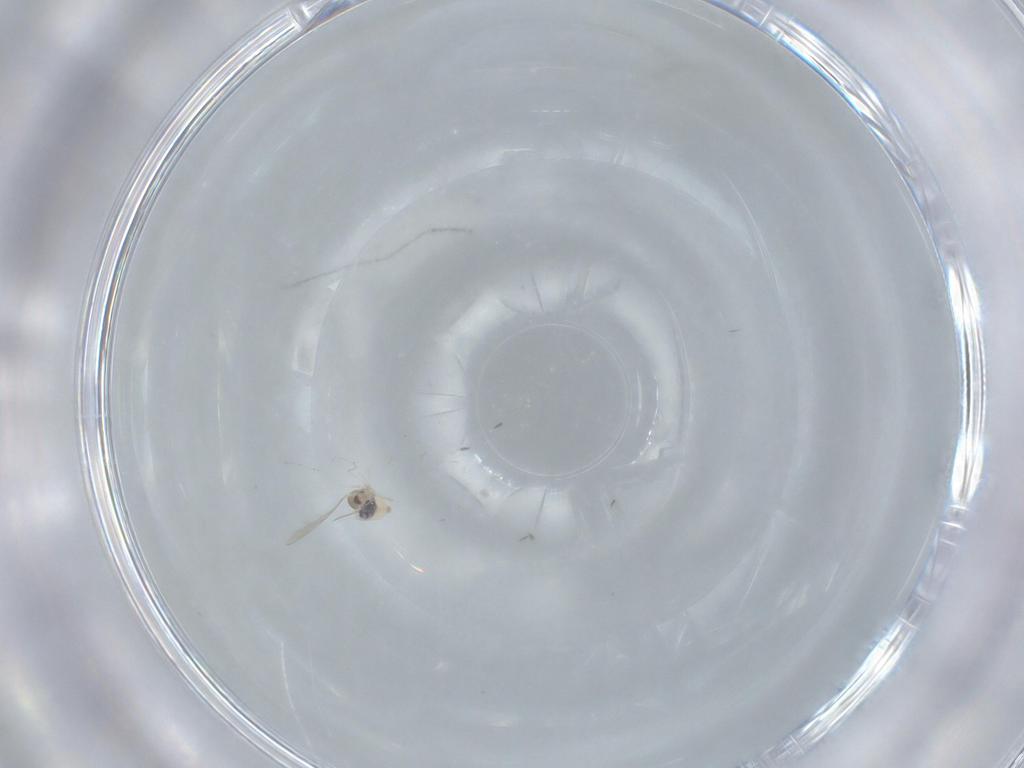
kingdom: Animalia
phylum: Arthropoda
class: Insecta
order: Diptera
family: Cecidomyiidae
